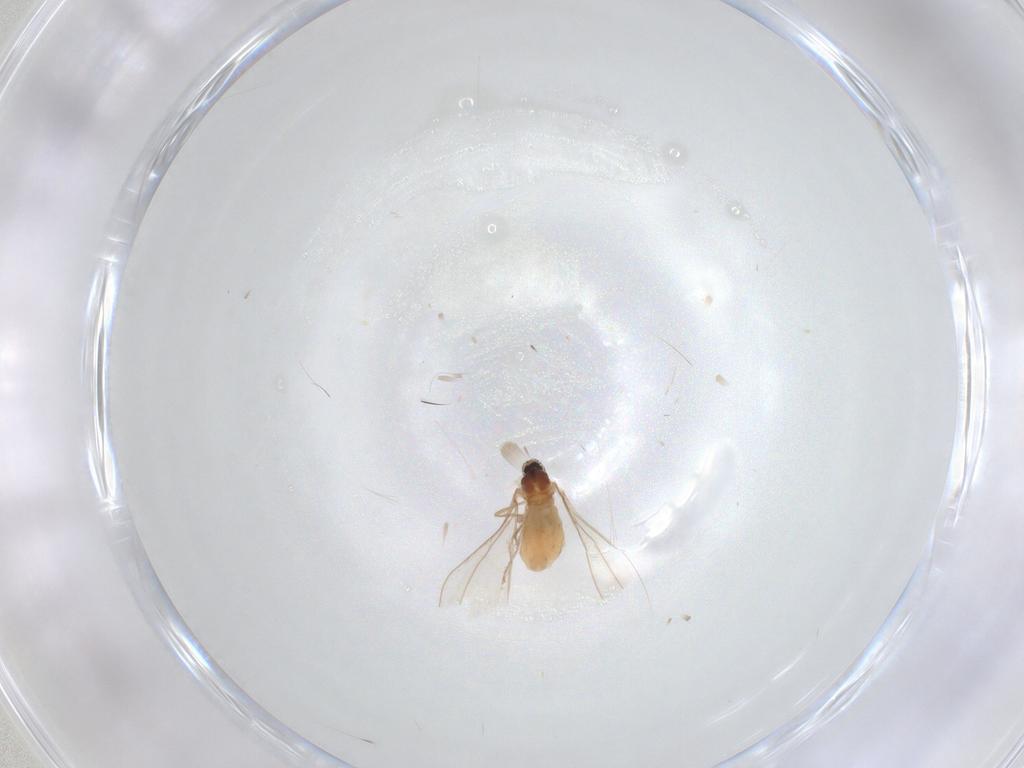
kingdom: Animalia
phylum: Arthropoda
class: Insecta
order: Diptera
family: Cecidomyiidae
